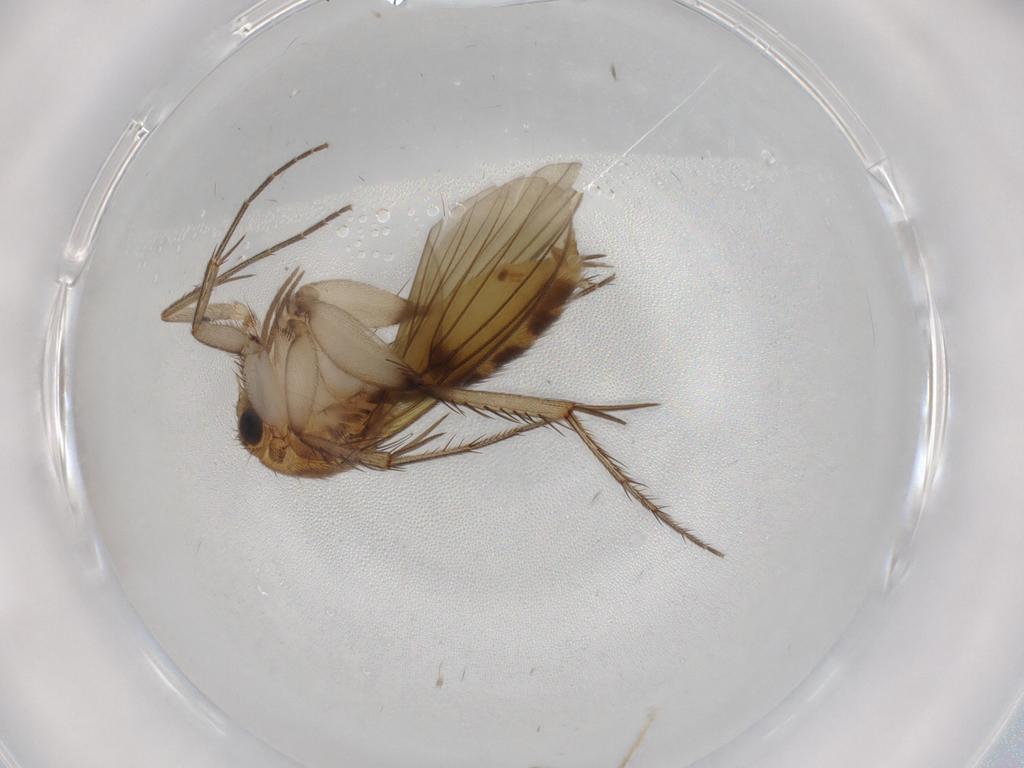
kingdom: Animalia
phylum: Arthropoda
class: Insecta
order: Diptera
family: Mycetophilidae
